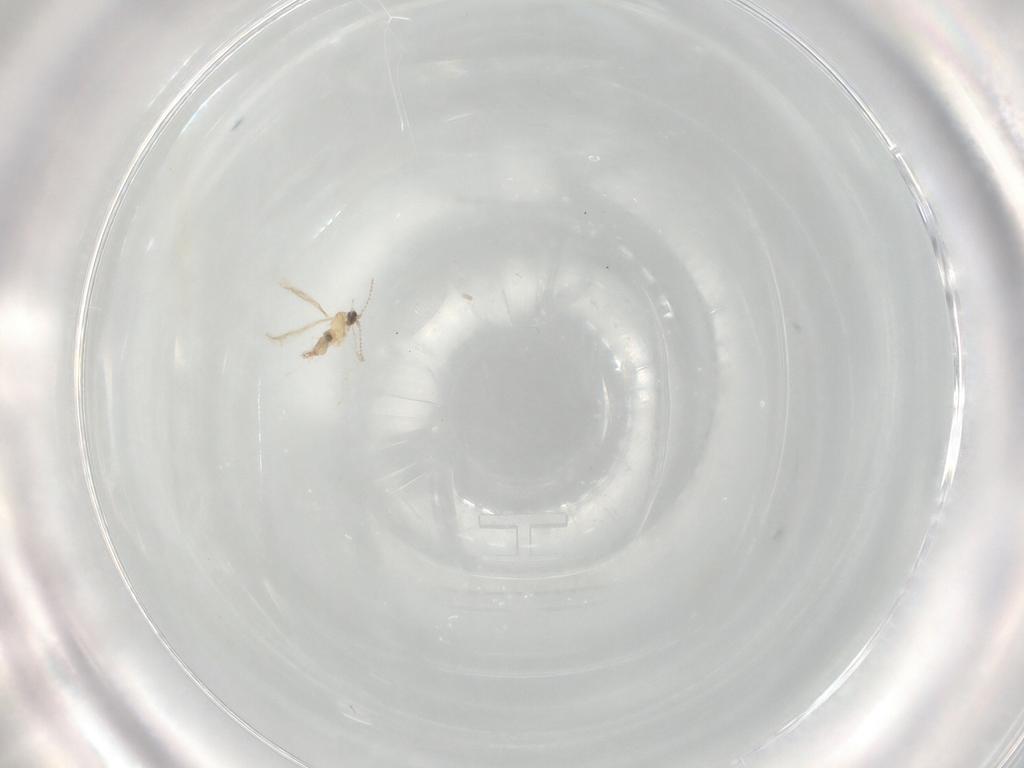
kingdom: Animalia
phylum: Arthropoda
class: Insecta
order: Diptera
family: Cecidomyiidae
